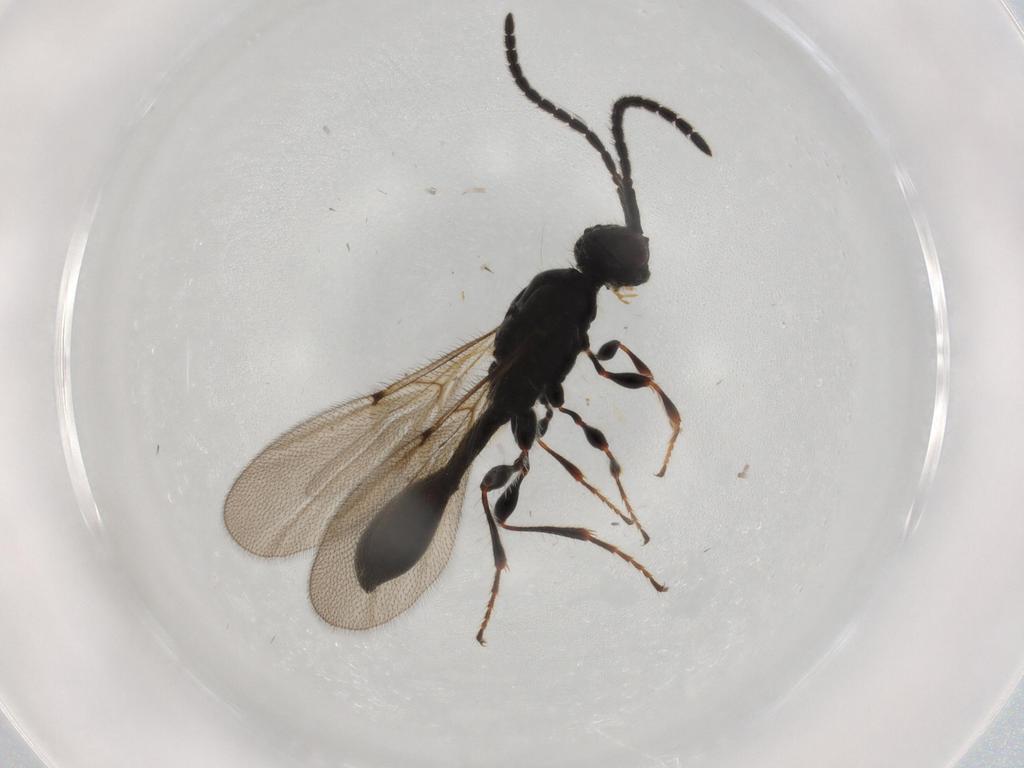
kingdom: Animalia
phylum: Arthropoda
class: Insecta
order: Hymenoptera
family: Diapriidae
